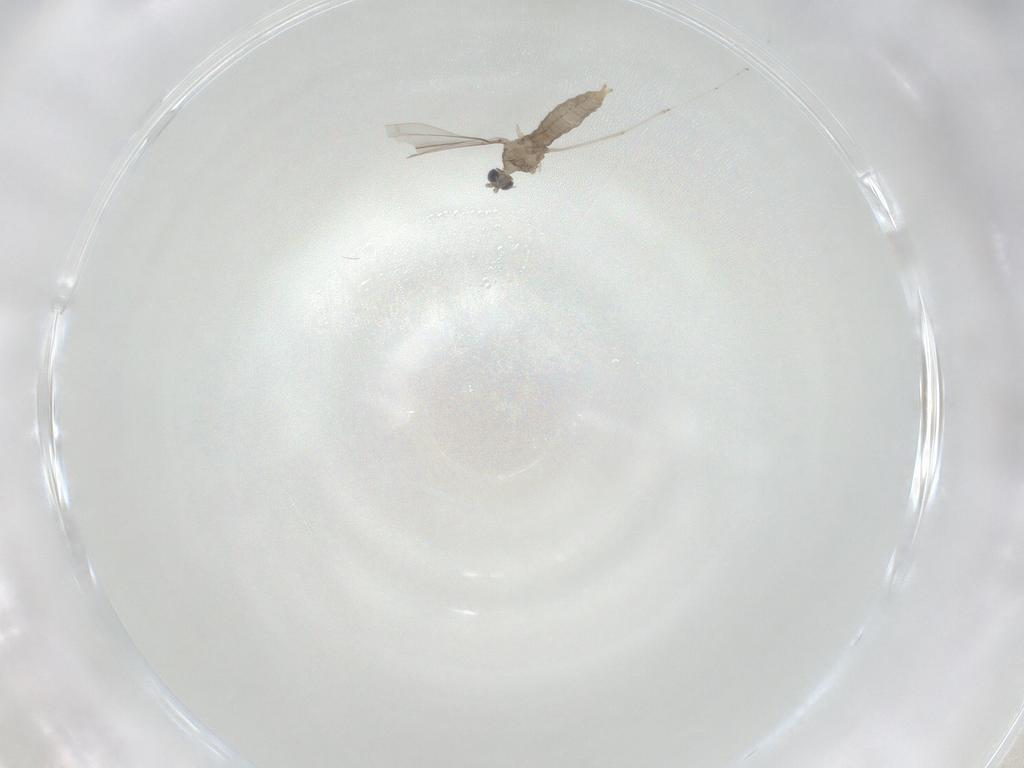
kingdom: Animalia
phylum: Arthropoda
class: Insecta
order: Diptera
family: Cecidomyiidae
